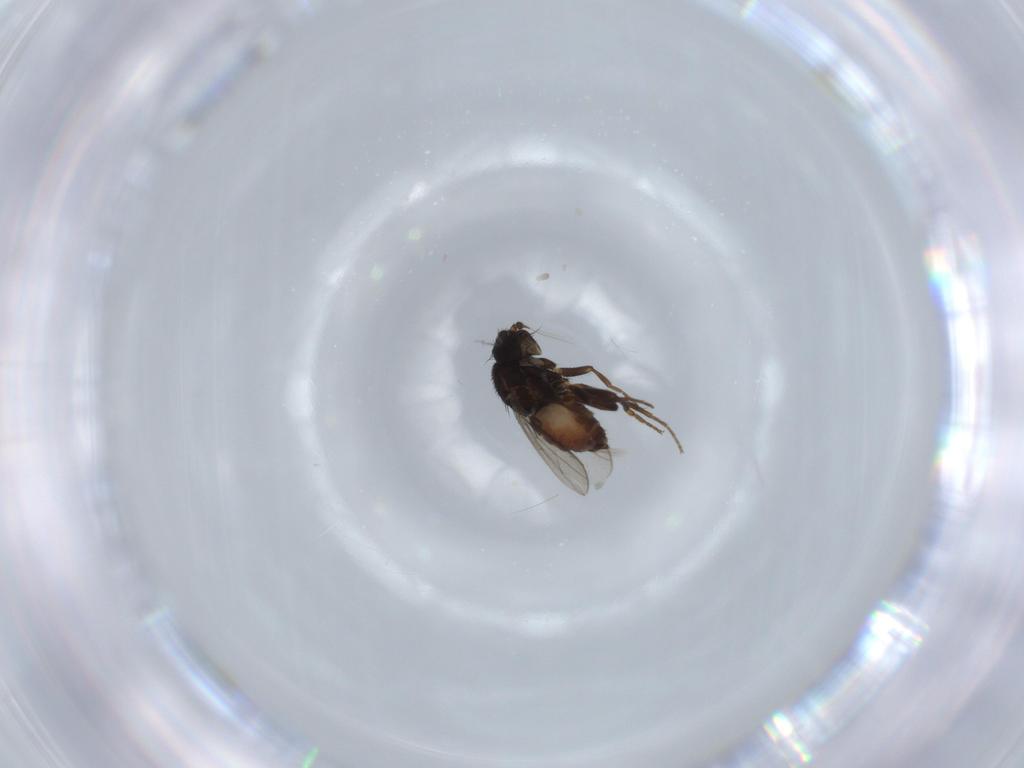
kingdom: Animalia
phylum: Arthropoda
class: Insecta
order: Diptera
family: Sphaeroceridae
